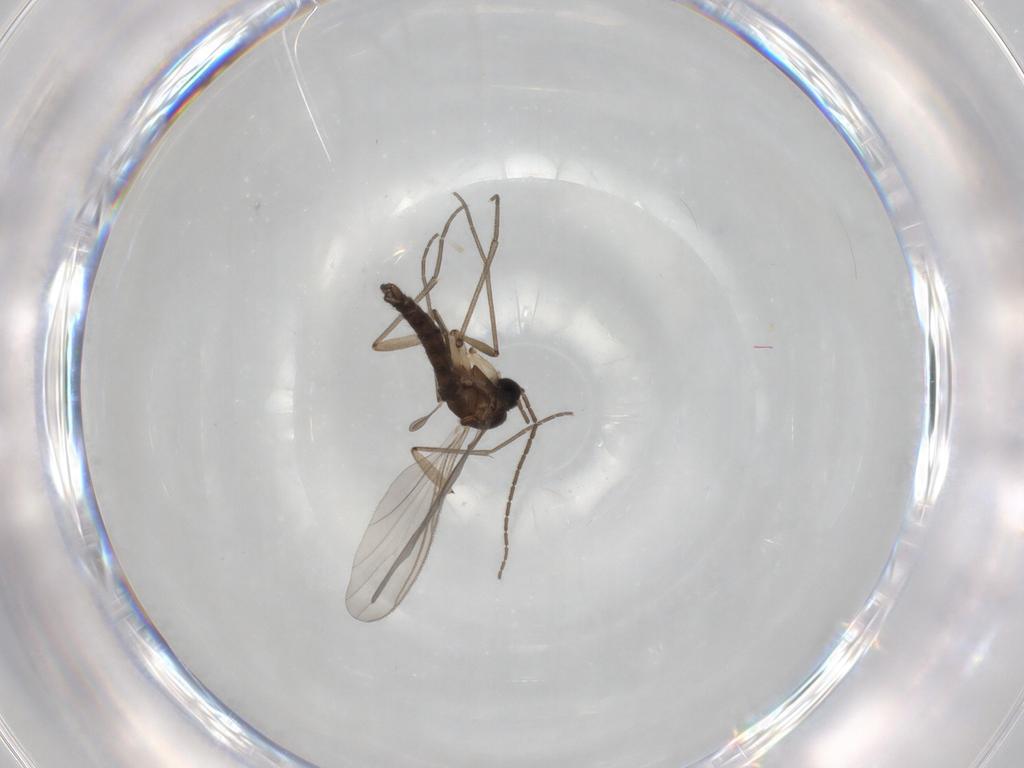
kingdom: Animalia
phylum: Arthropoda
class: Insecta
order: Diptera
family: Sciaridae
